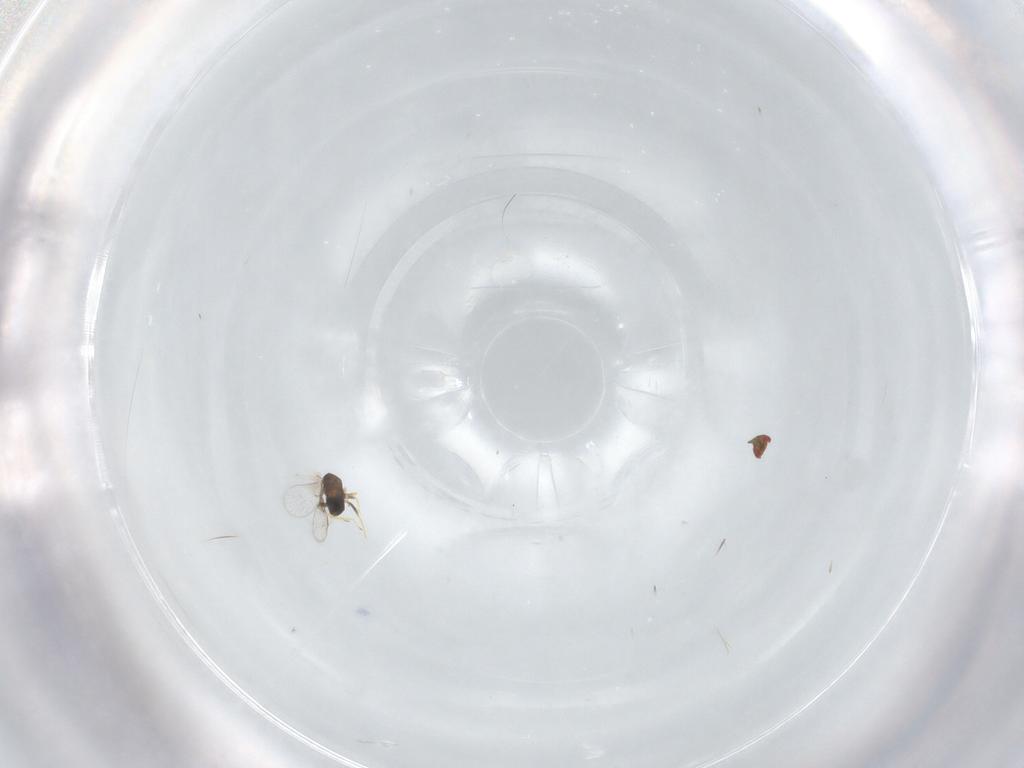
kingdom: Animalia
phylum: Arthropoda
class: Insecta
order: Hymenoptera
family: Trichogrammatidae
